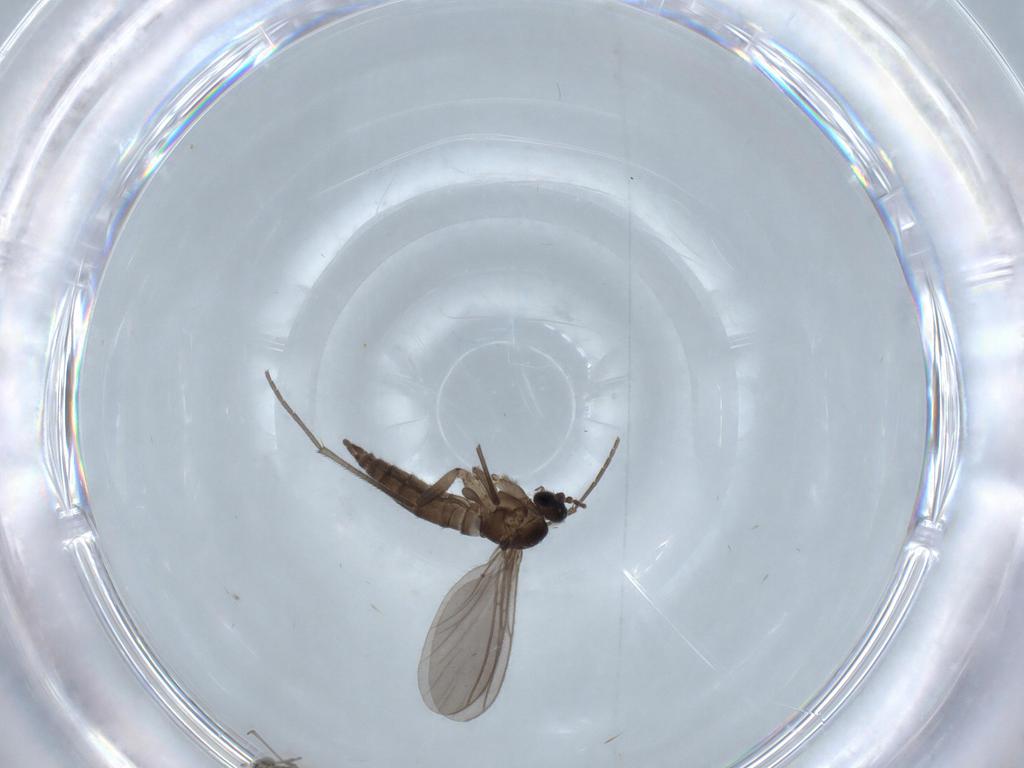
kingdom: Animalia
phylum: Arthropoda
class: Insecta
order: Diptera
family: Sciaridae
